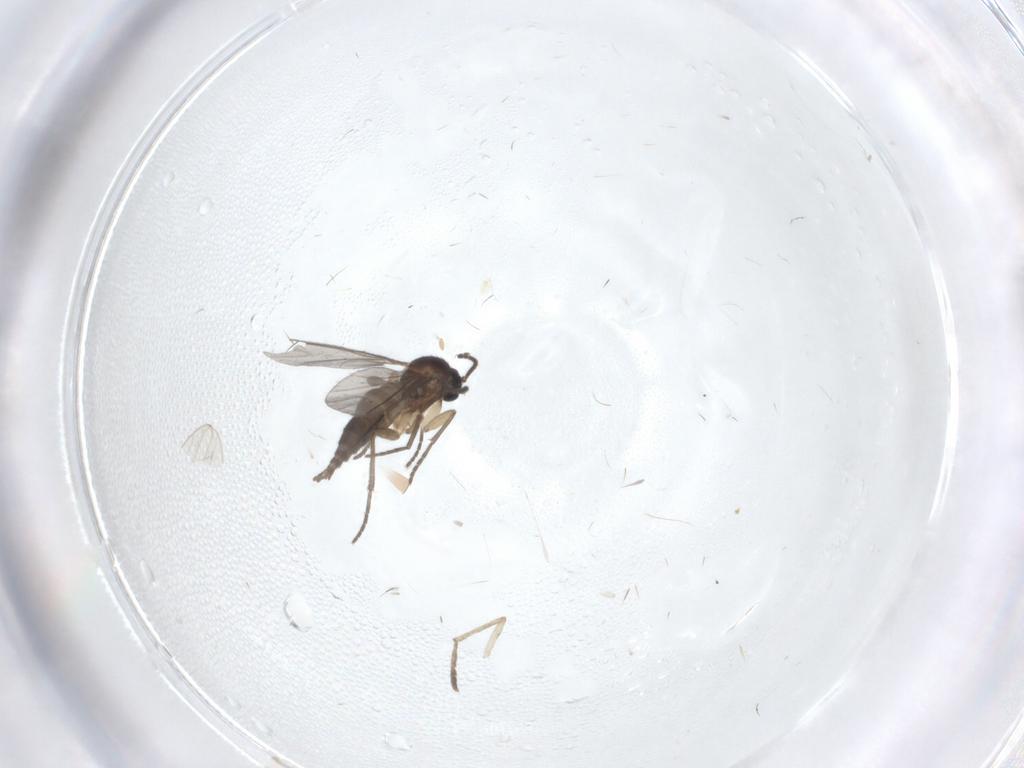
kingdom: Animalia
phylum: Arthropoda
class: Insecta
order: Diptera
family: Sciaridae
